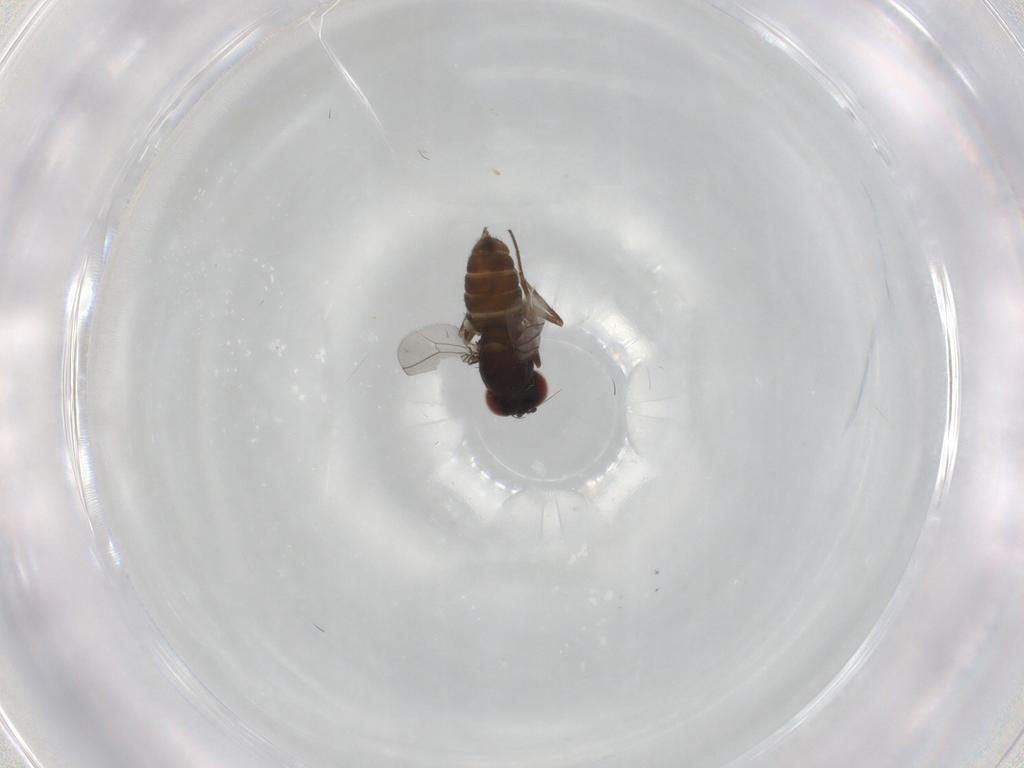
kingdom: Animalia
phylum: Arthropoda
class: Insecta
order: Diptera
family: Dolichopodidae
